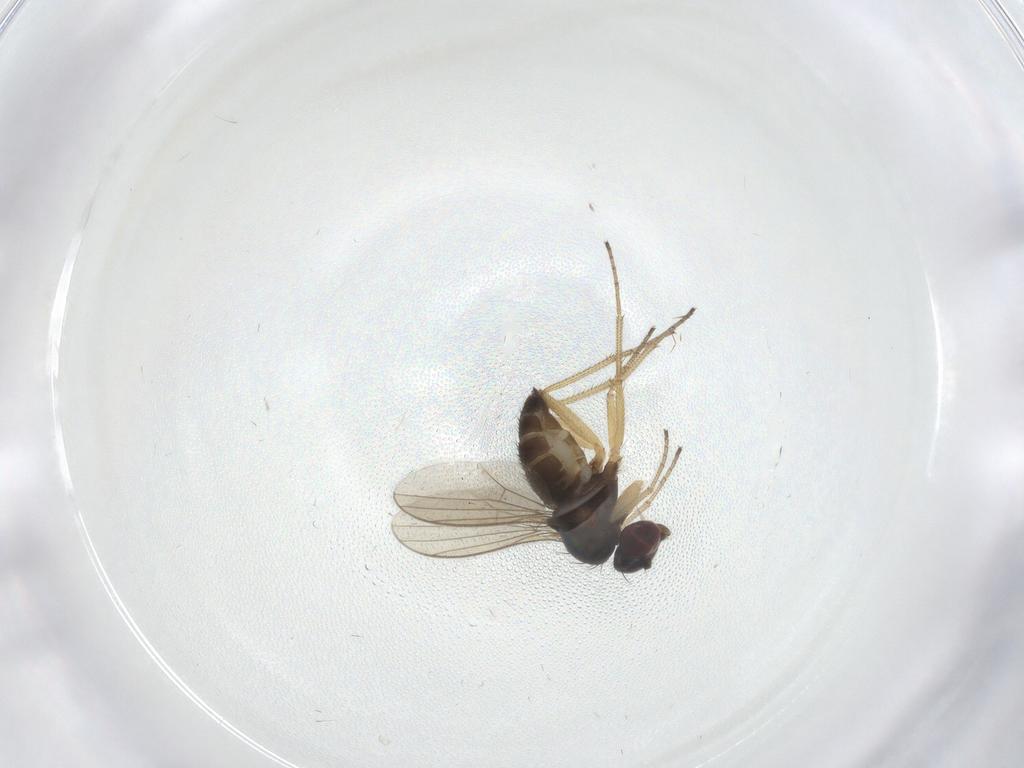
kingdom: Animalia
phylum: Arthropoda
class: Insecta
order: Diptera
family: Dolichopodidae
